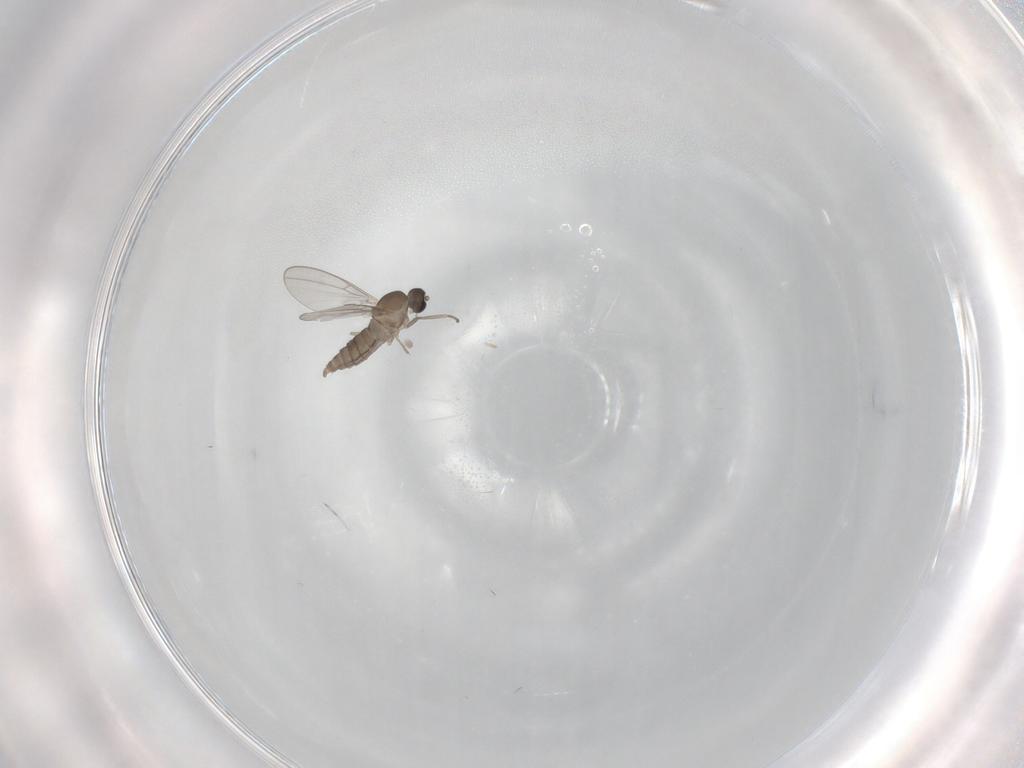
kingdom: Animalia
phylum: Arthropoda
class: Insecta
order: Diptera
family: Cecidomyiidae
